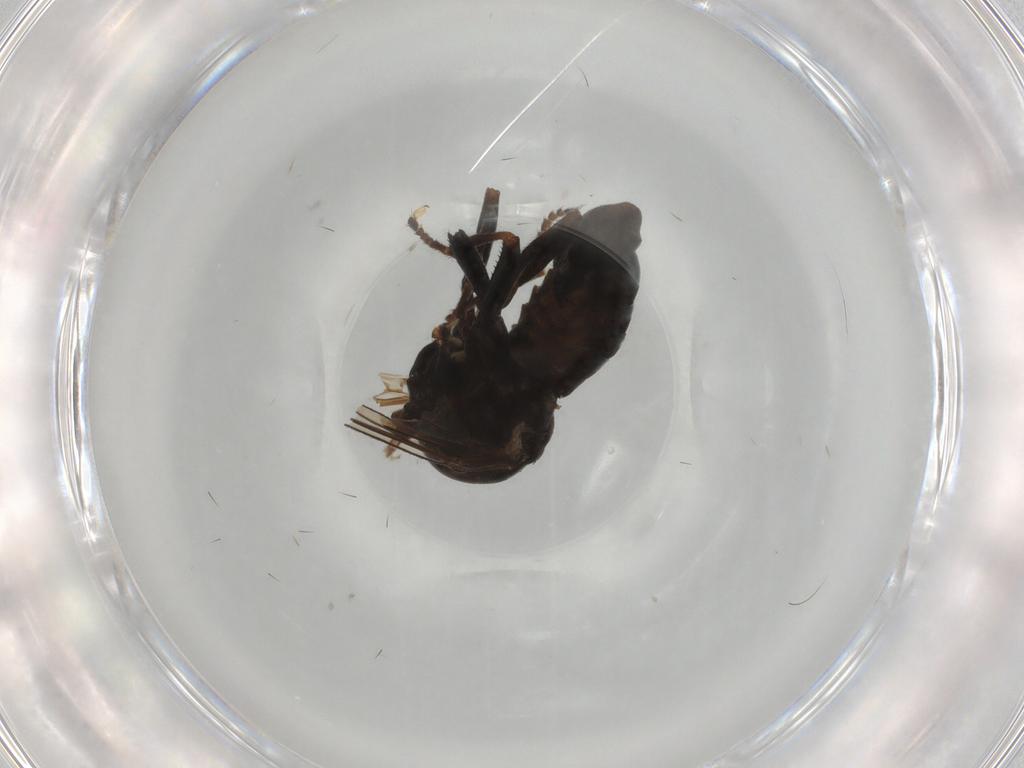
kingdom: Animalia
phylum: Arthropoda
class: Insecta
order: Diptera
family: Pipunculidae
